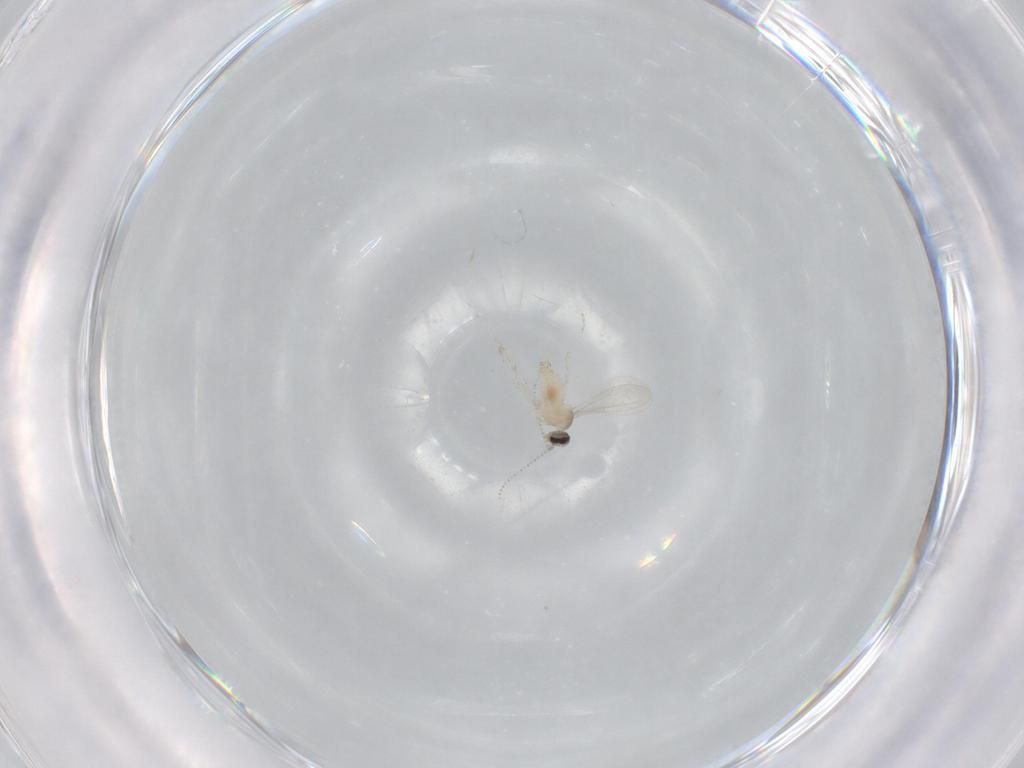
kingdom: Animalia
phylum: Arthropoda
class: Insecta
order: Diptera
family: Cecidomyiidae
